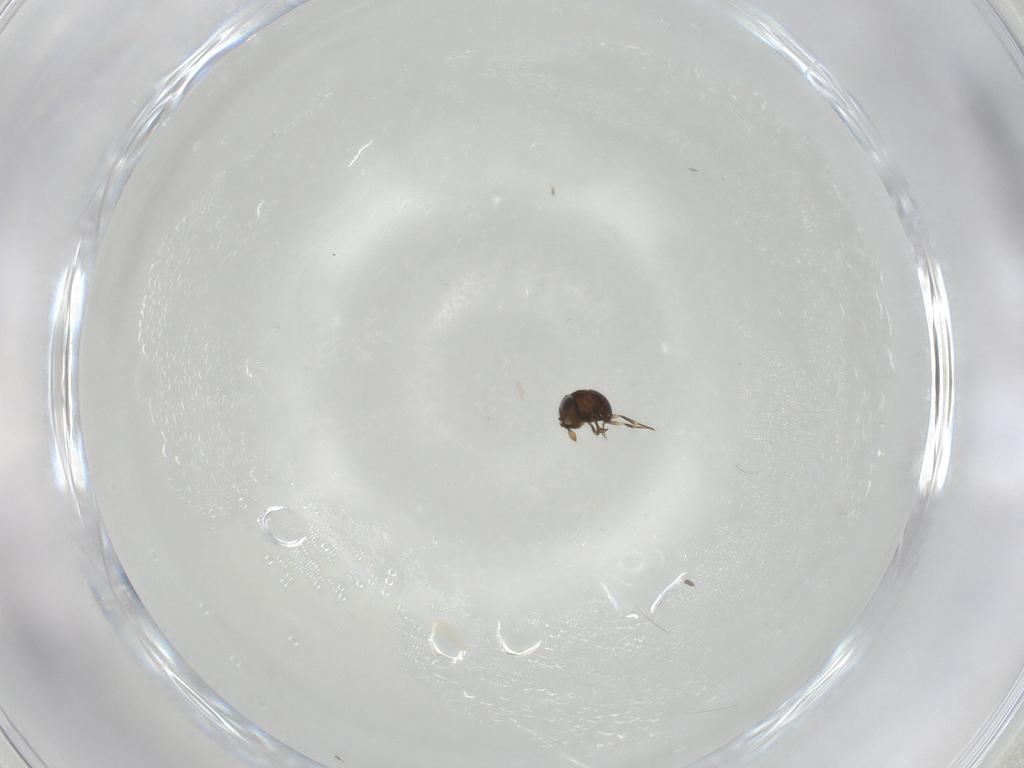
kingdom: Animalia
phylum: Arthropoda
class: Insecta
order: Hymenoptera
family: Scelionidae
